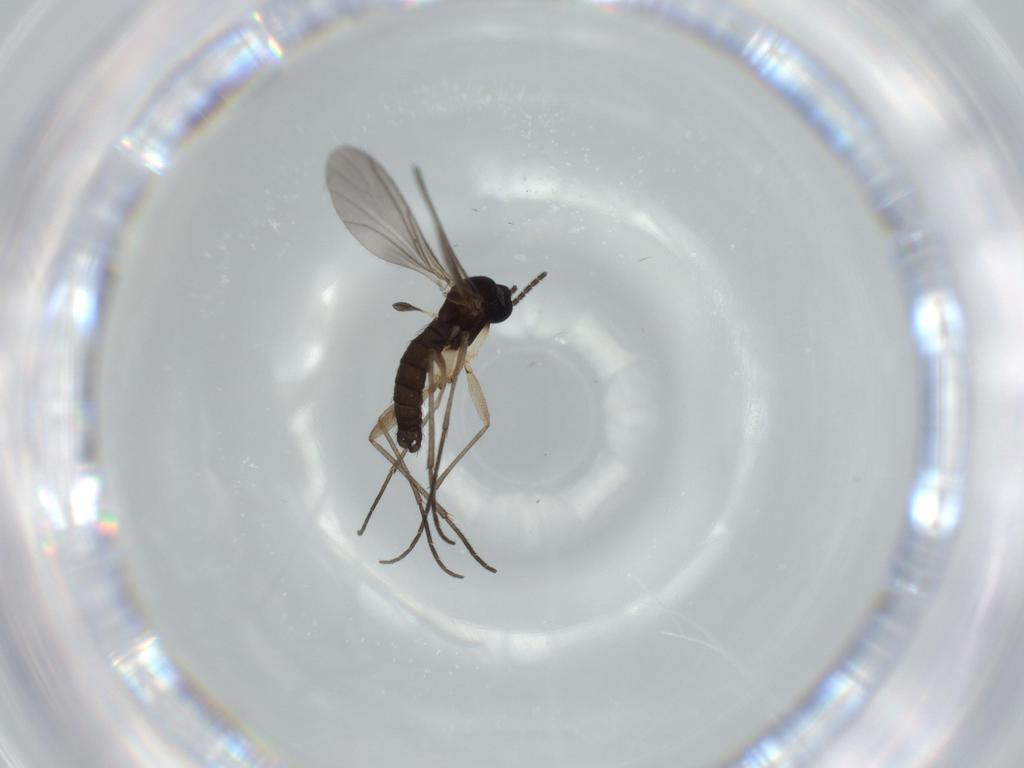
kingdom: Animalia
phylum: Arthropoda
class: Insecta
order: Diptera
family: Sciaridae
